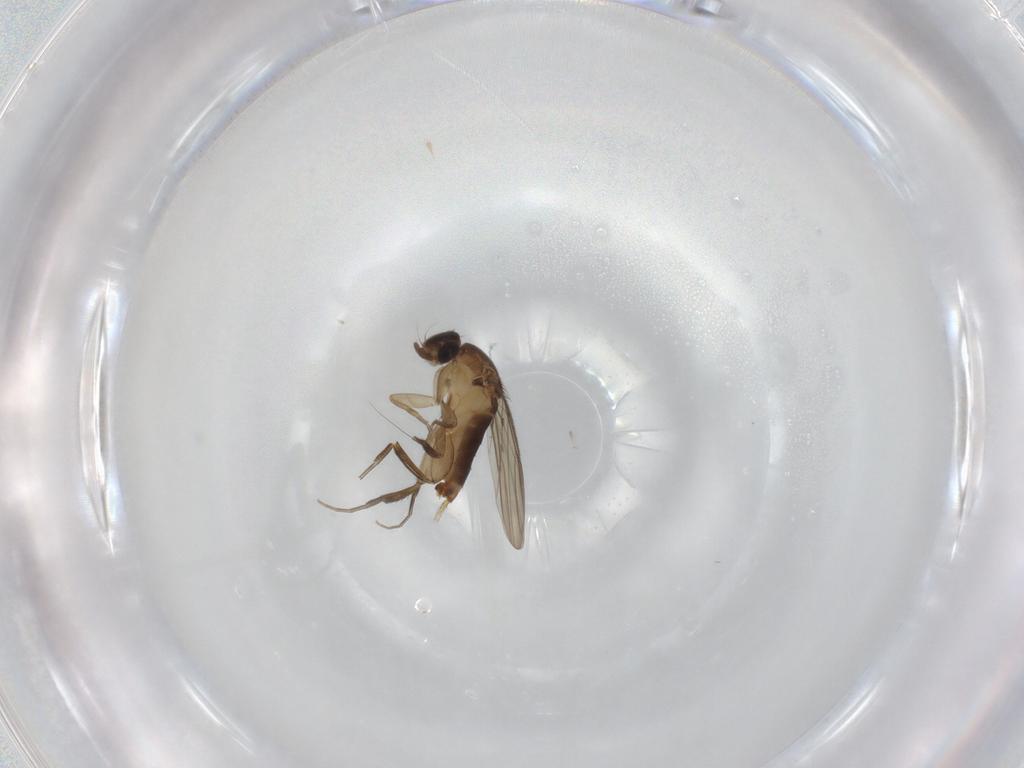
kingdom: Animalia
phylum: Arthropoda
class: Insecta
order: Diptera
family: Phoridae
